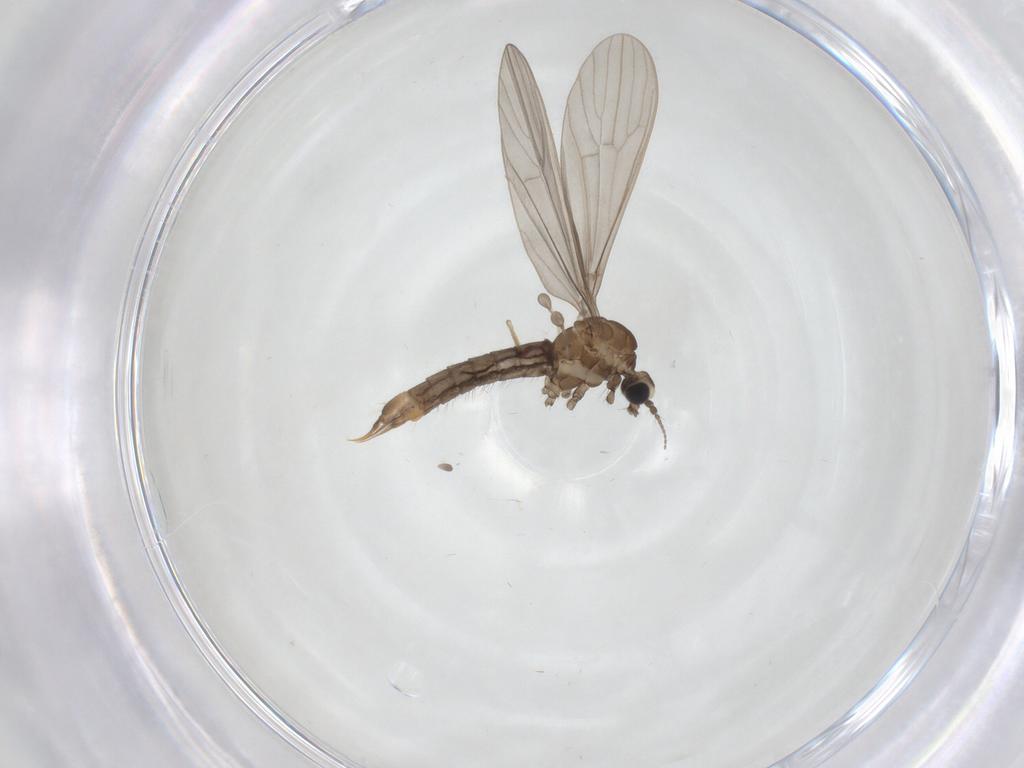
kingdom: Animalia
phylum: Arthropoda
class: Insecta
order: Diptera
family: Limoniidae
